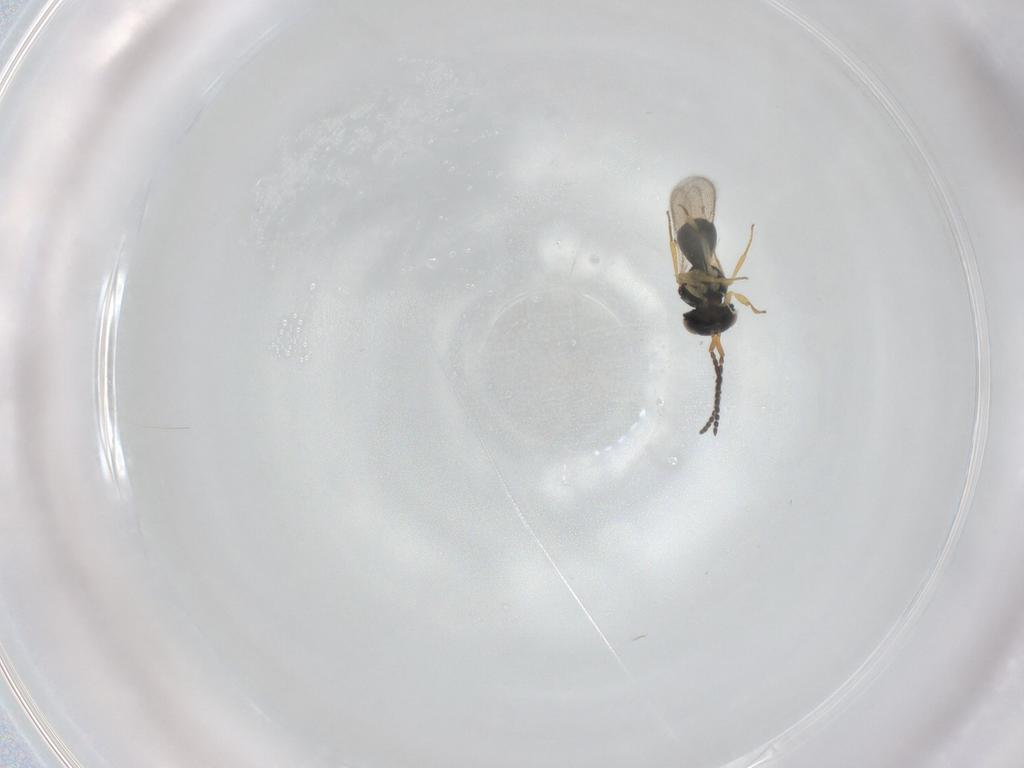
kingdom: Animalia
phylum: Arthropoda
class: Insecta
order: Hymenoptera
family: Scelionidae
